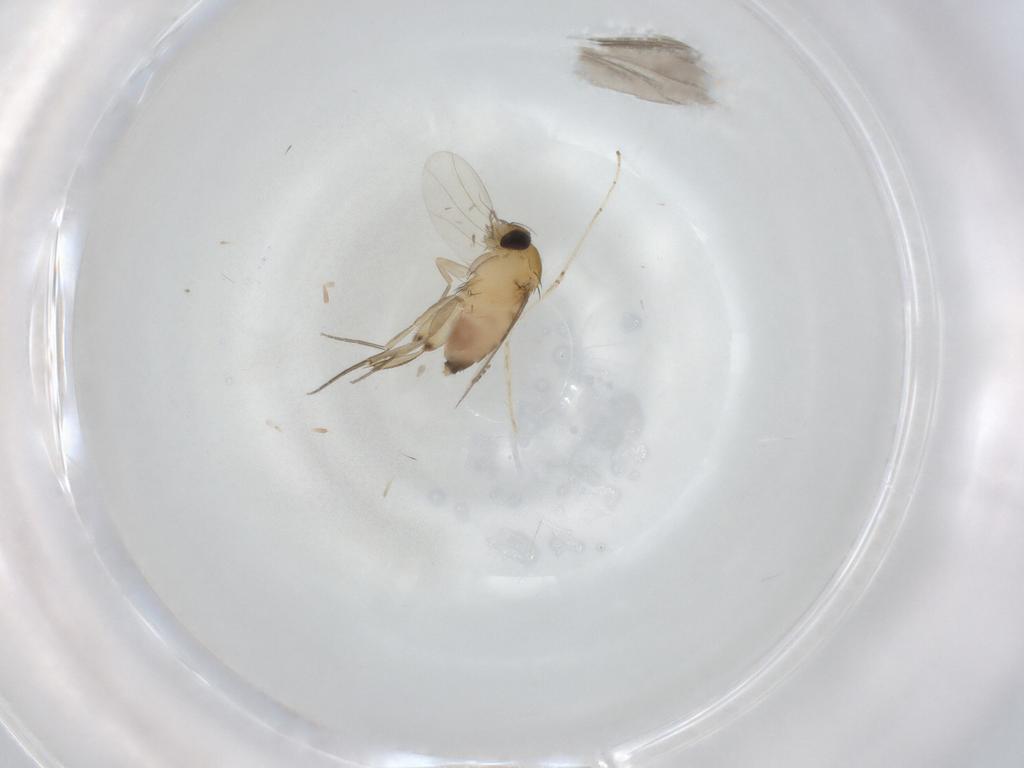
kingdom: Animalia
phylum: Arthropoda
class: Insecta
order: Diptera
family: Phoridae
